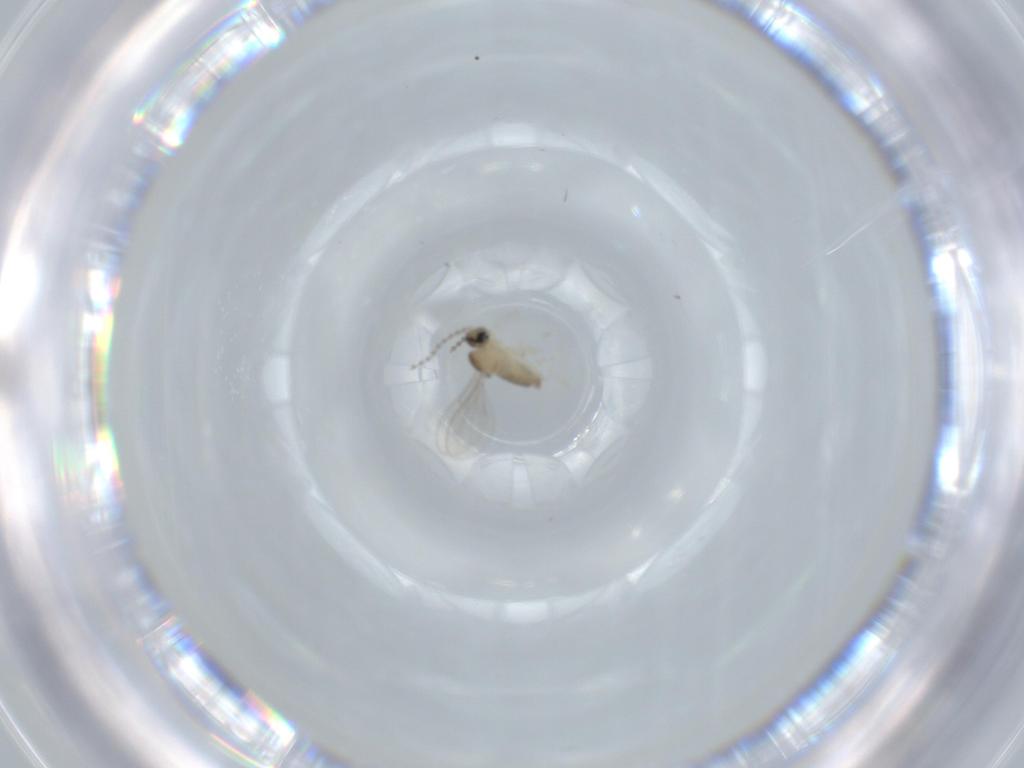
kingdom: Animalia
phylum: Arthropoda
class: Insecta
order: Diptera
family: Cecidomyiidae
